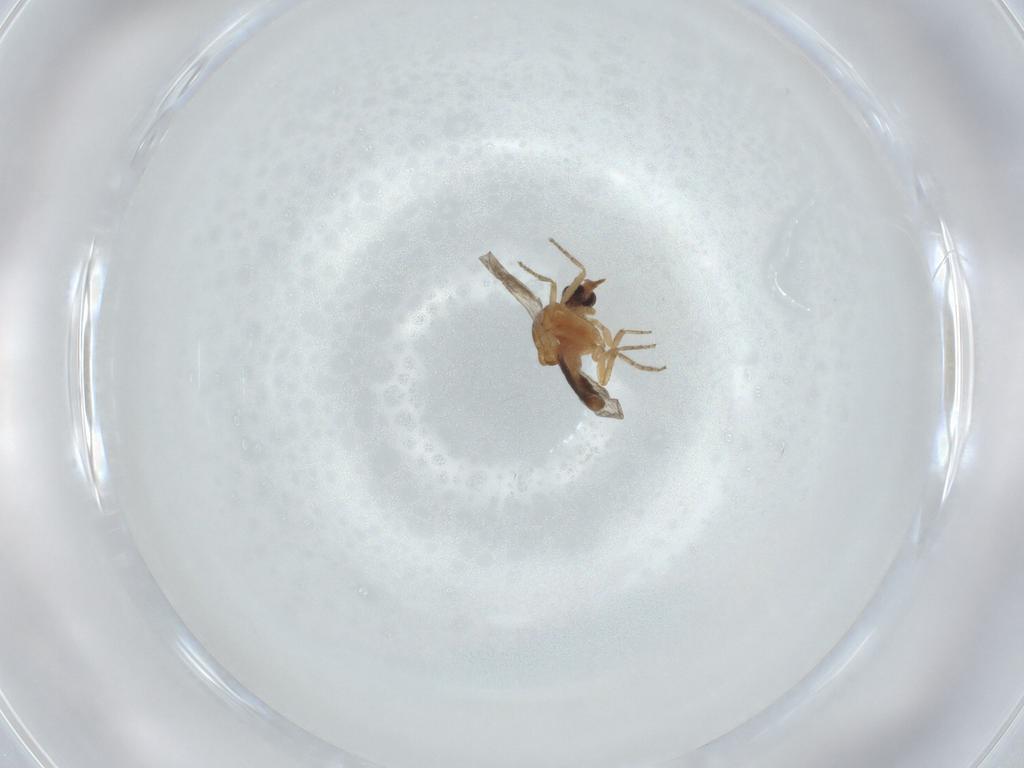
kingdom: Animalia
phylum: Arthropoda
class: Insecta
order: Diptera
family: Ceratopogonidae
